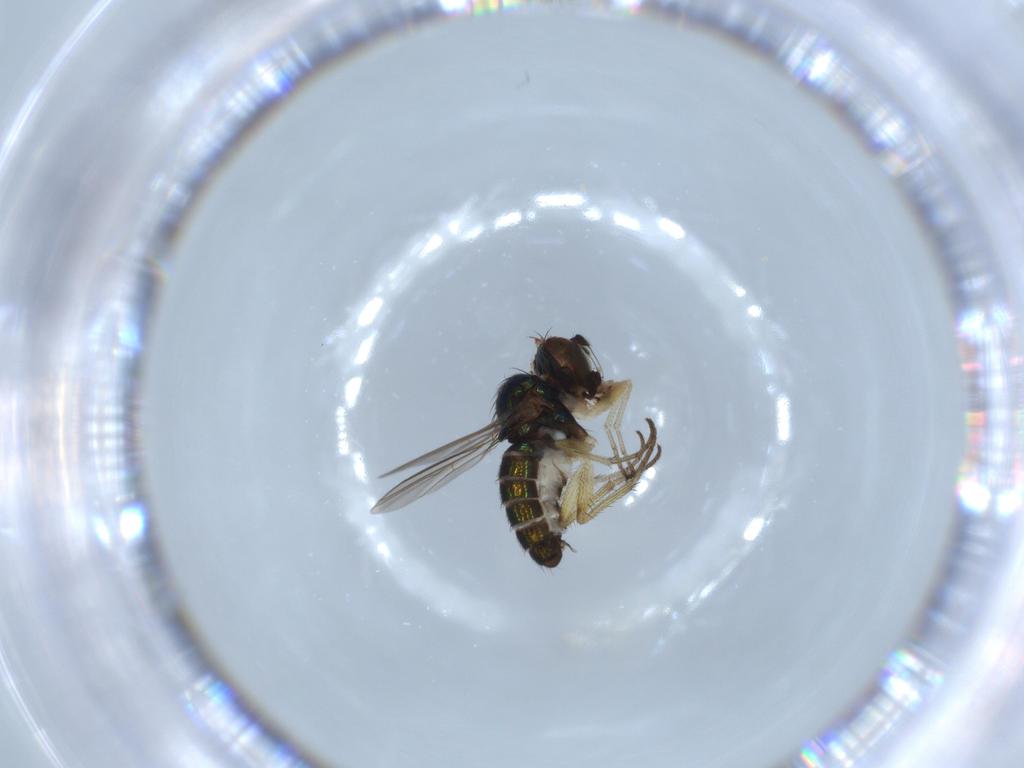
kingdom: Animalia
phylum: Arthropoda
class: Insecta
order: Diptera
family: Dolichopodidae
